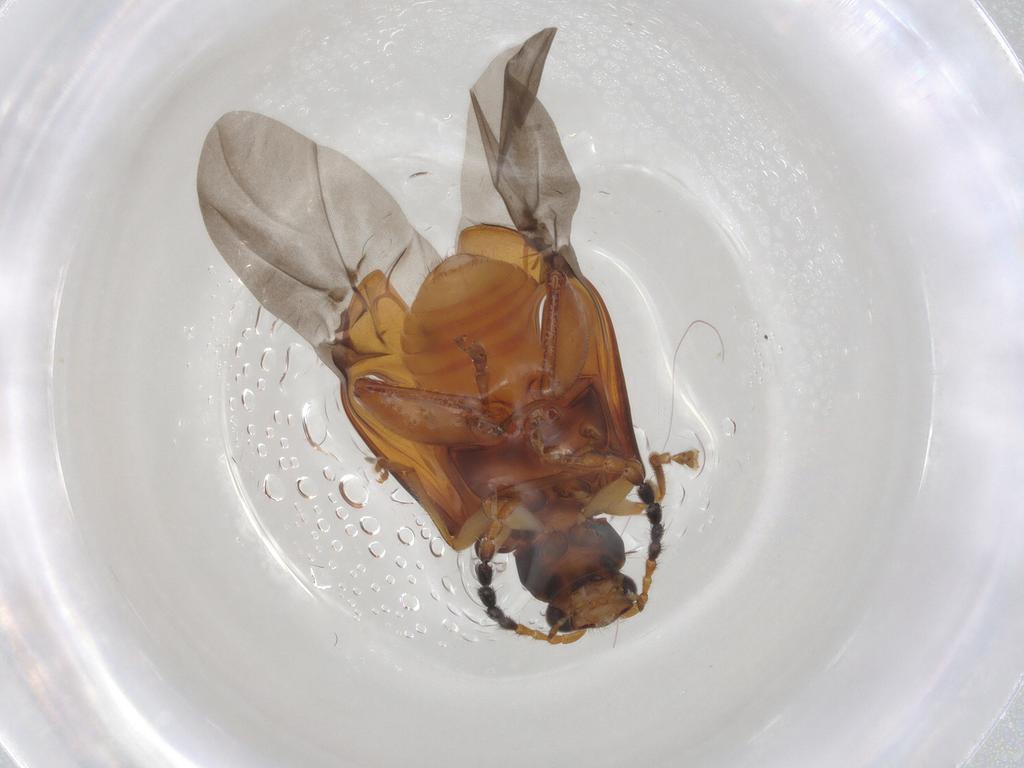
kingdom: Animalia
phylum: Arthropoda
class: Insecta
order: Coleoptera
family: Chrysomelidae
